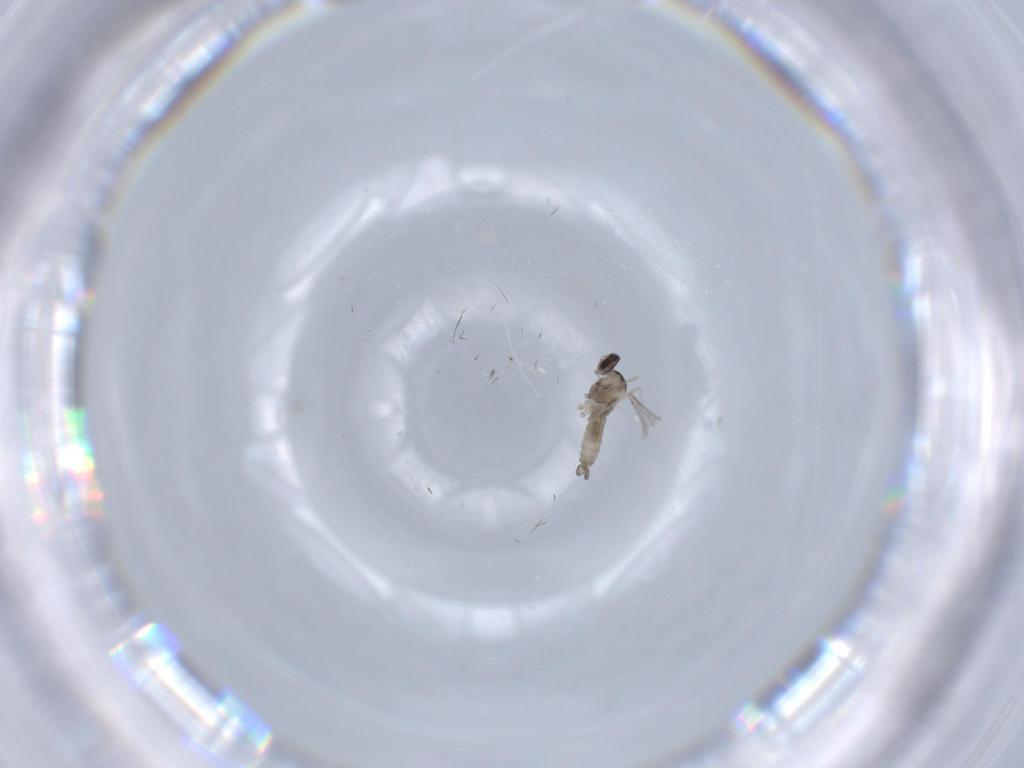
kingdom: Animalia
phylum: Arthropoda
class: Insecta
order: Diptera
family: Cecidomyiidae
